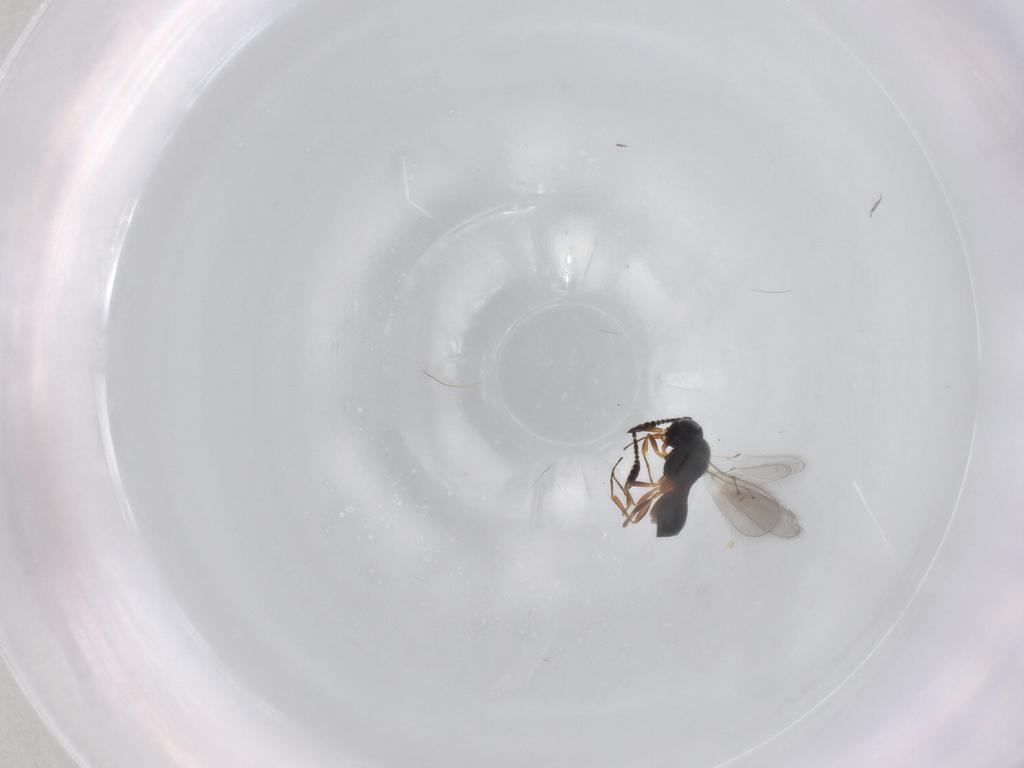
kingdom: Animalia
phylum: Arthropoda
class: Insecta
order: Hymenoptera
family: Scelionidae
